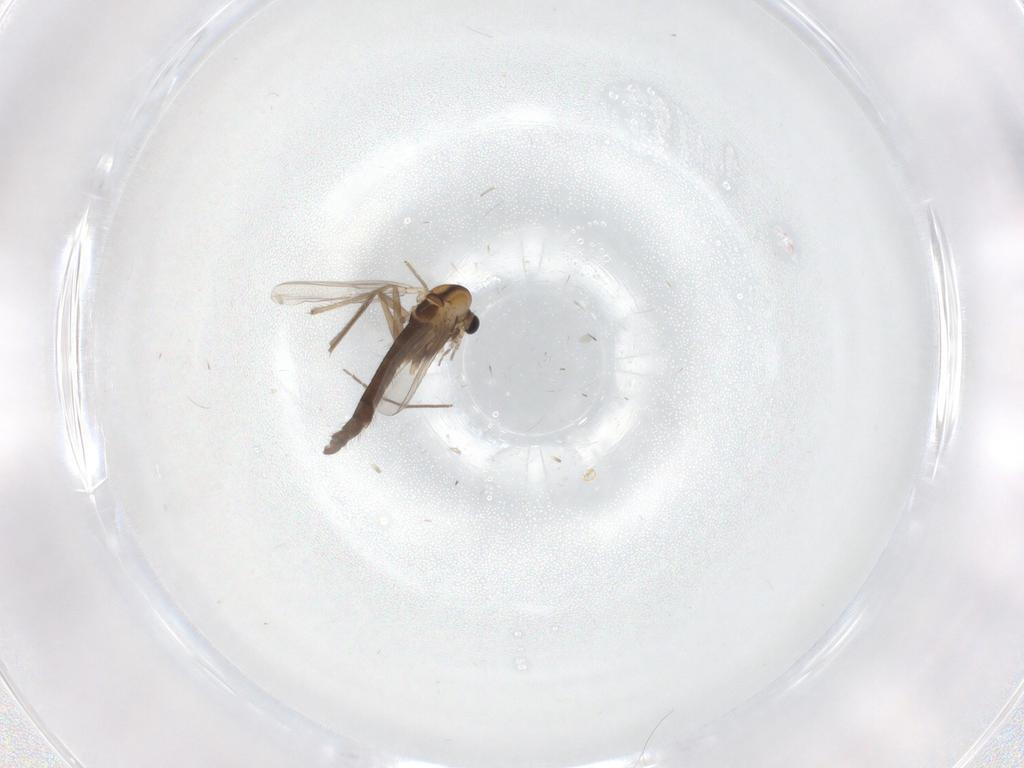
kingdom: Animalia
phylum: Arthropoda
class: Insecta
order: Diptera
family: Chironomidae
